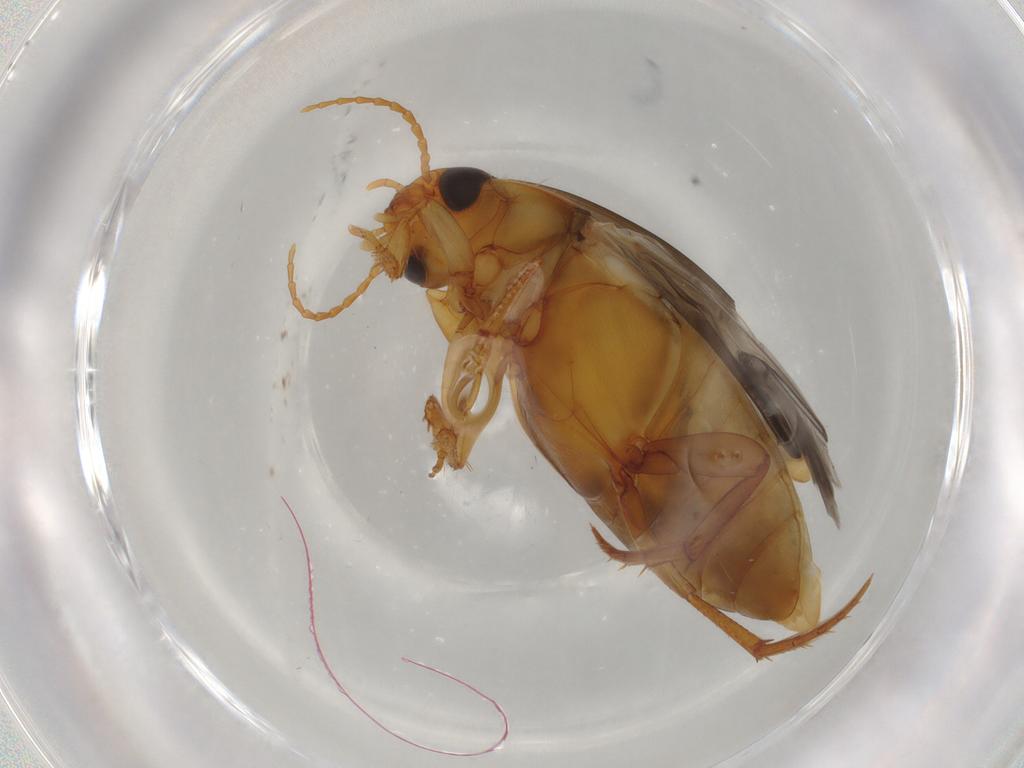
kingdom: Animalia
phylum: Arthropoda
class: Insecta
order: Coleoptera
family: Dytiscidae
